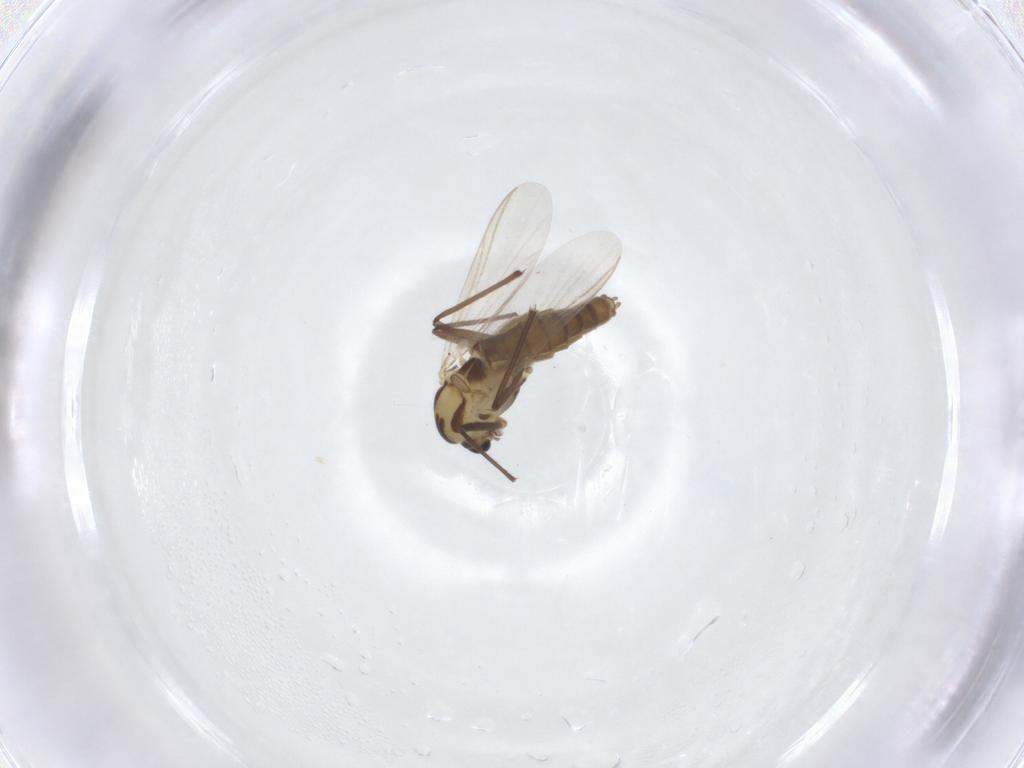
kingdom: Animalia
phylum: Arthropoda
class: Insecta
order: Diptera
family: Chironomidae
